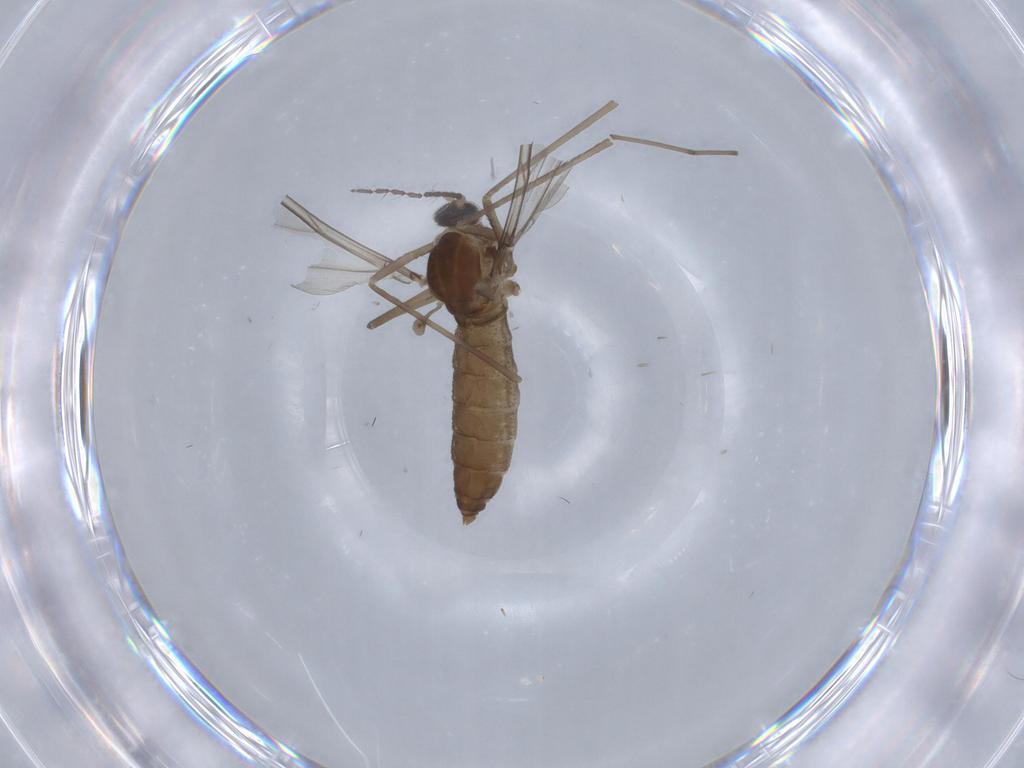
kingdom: Animalia
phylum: Arthropoda
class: Insecta
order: Diptera
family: Cecidomyiidae
